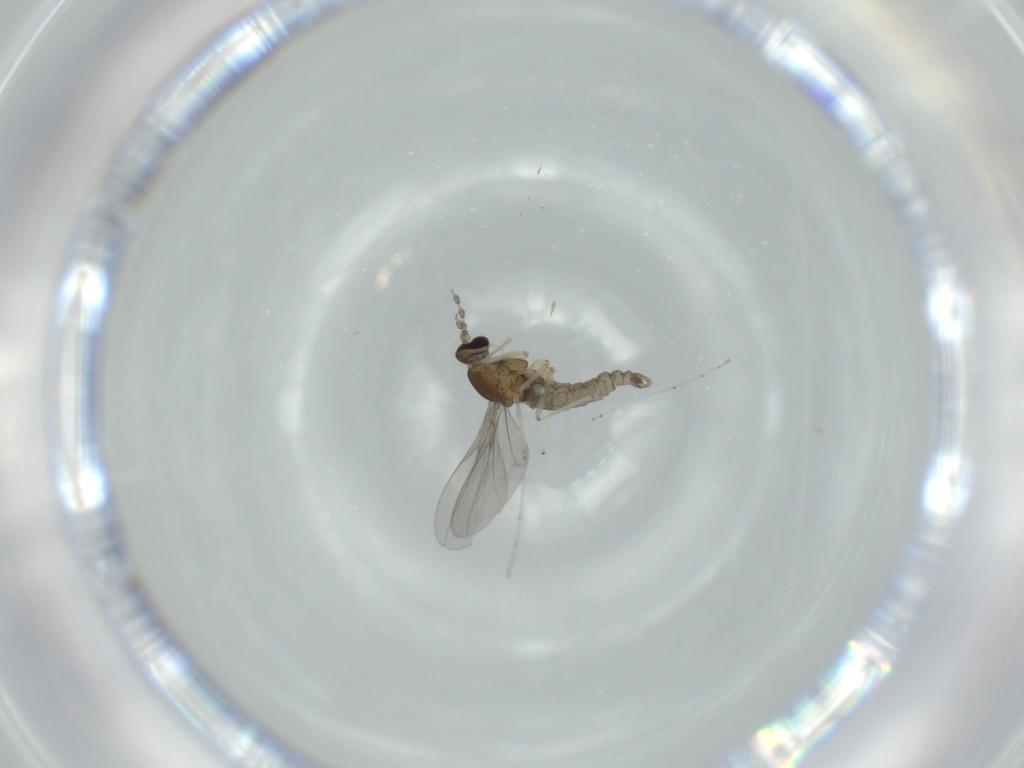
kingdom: Animalia
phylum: Arthropoda
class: Insecta
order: Diptera
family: Cecidomyiidae
